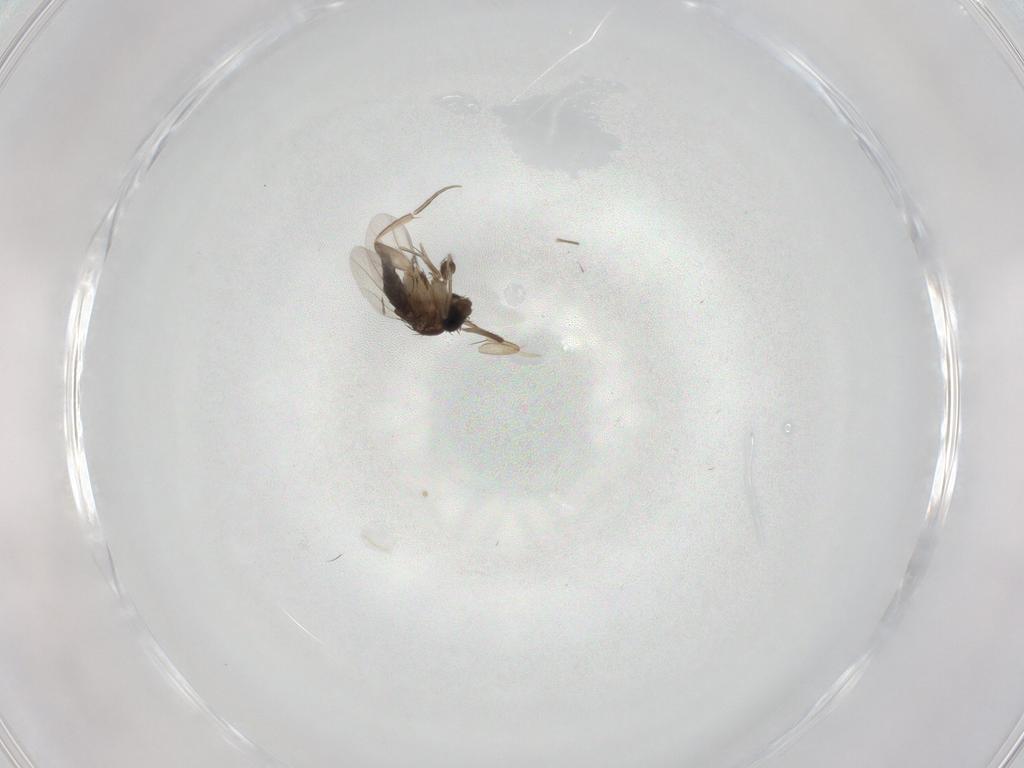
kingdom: Animalia
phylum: Arthropoda
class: Insecta
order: Diptera
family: Phoridae
